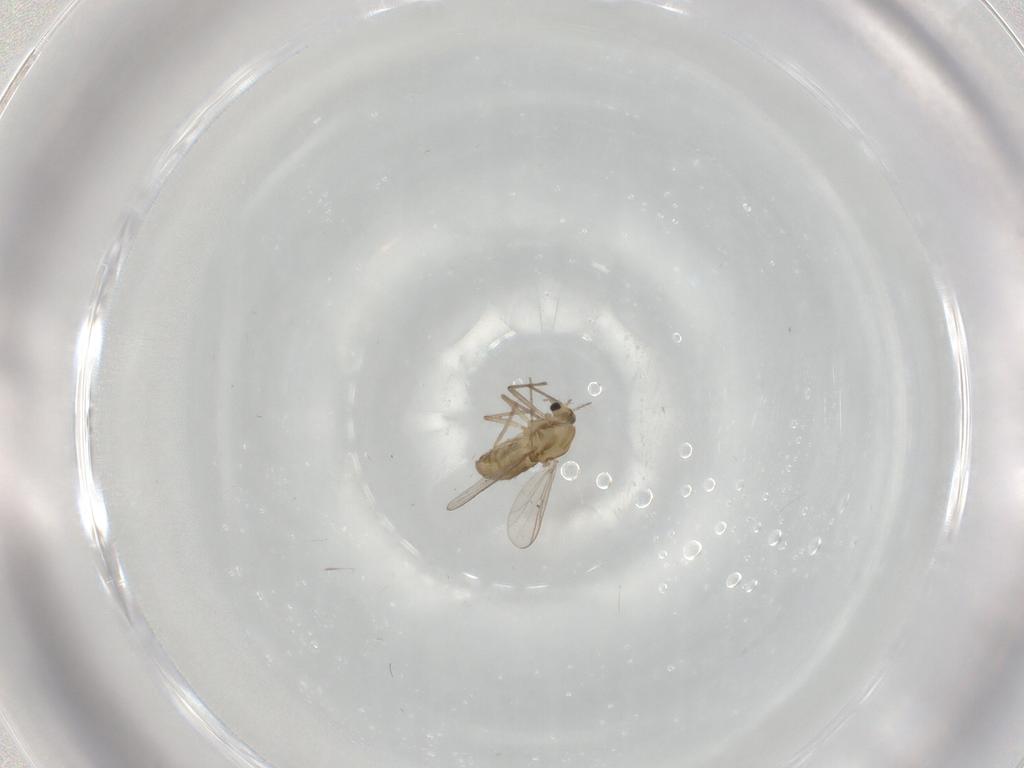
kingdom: Animalia
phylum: Arthropoda
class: Insecta
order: Diptera
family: Chironomidae
